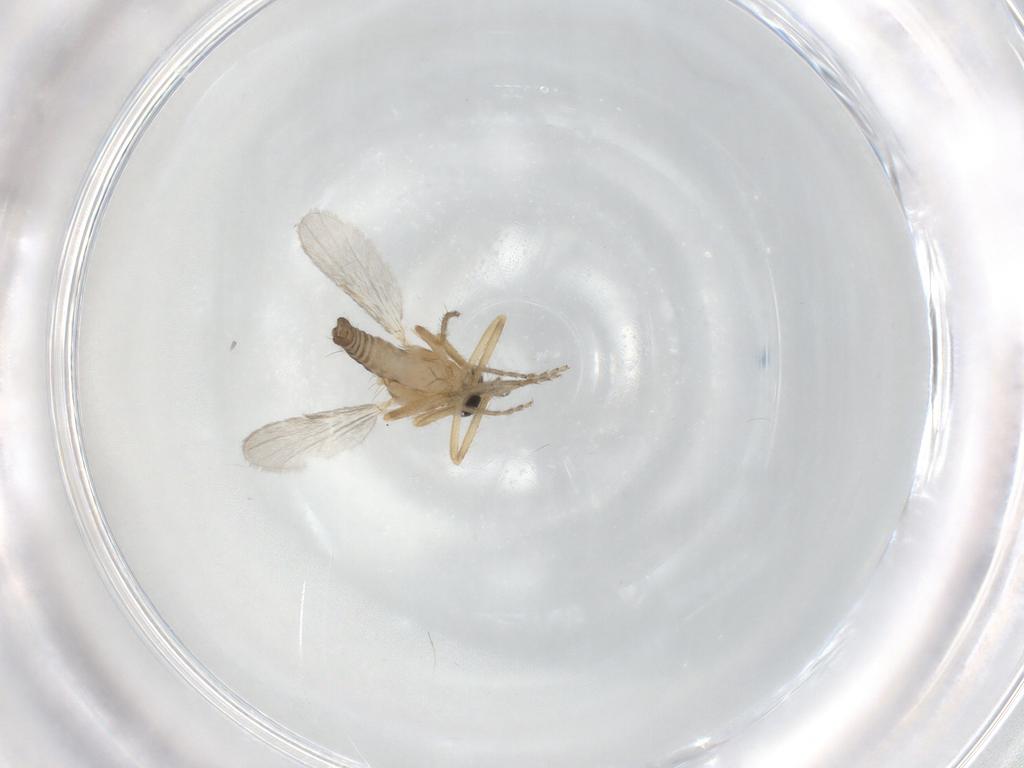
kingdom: Animalia
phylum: Arthropoda
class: Insecta
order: Diptera
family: Ceratopogonidae
